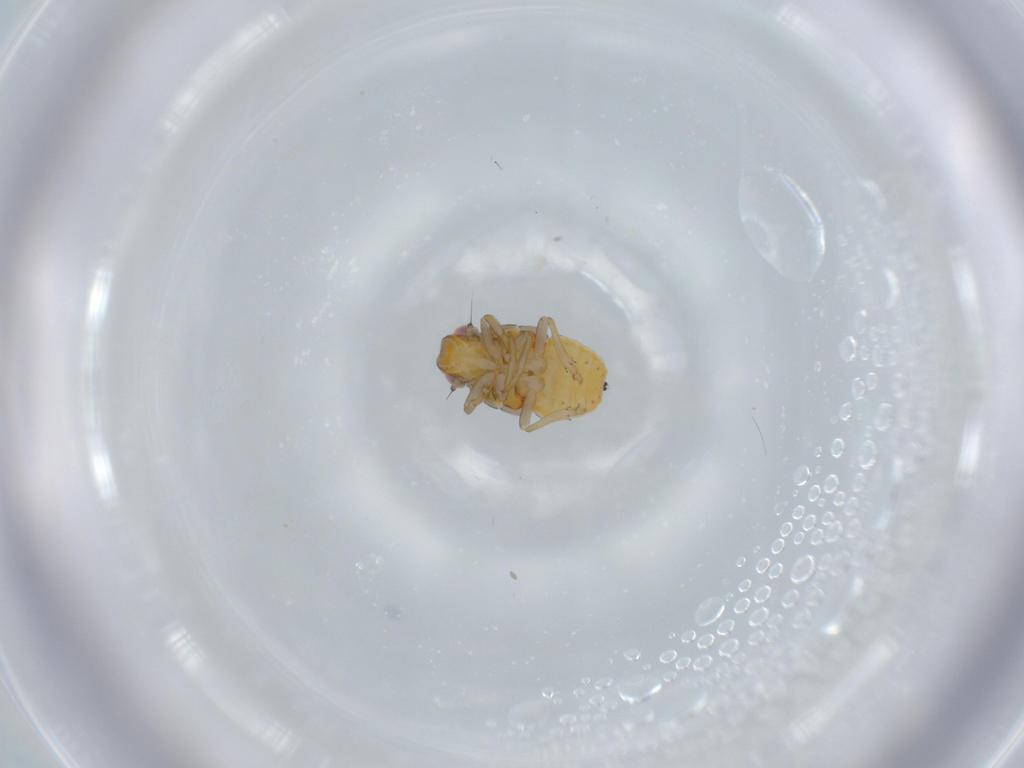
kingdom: Animalia
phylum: Arthropoda
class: Insecta
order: Hemiptera
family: Issidae
